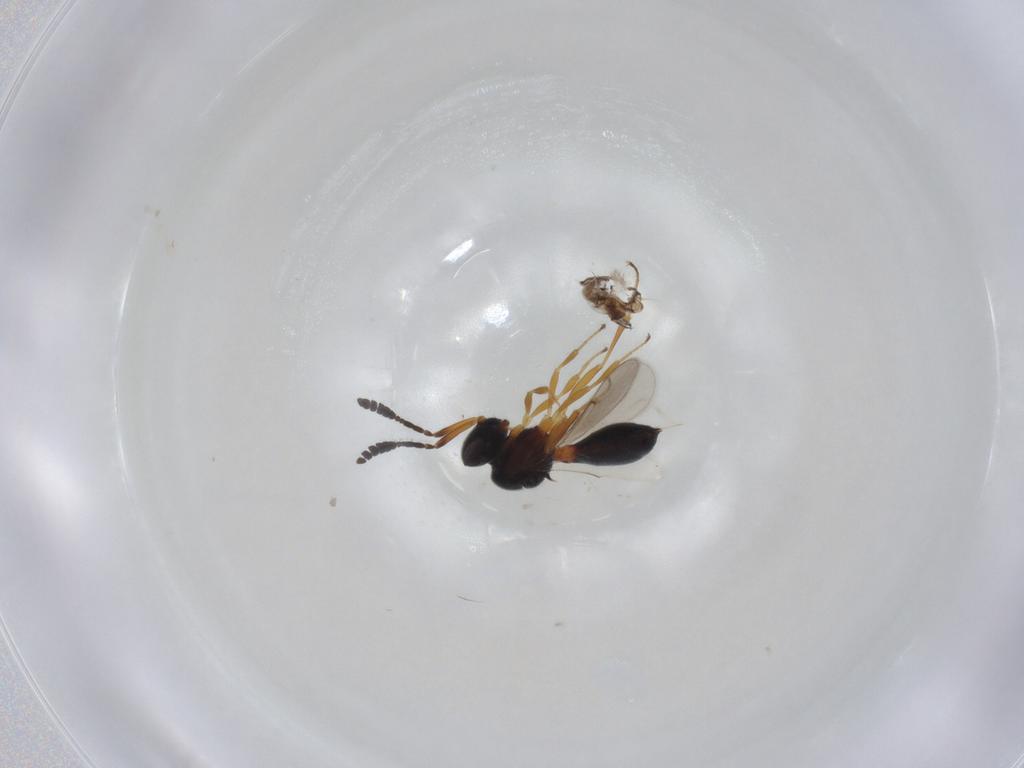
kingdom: Animalia
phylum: Arthropoda
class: Insecta
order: Hymenoptera
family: Scelionidae
